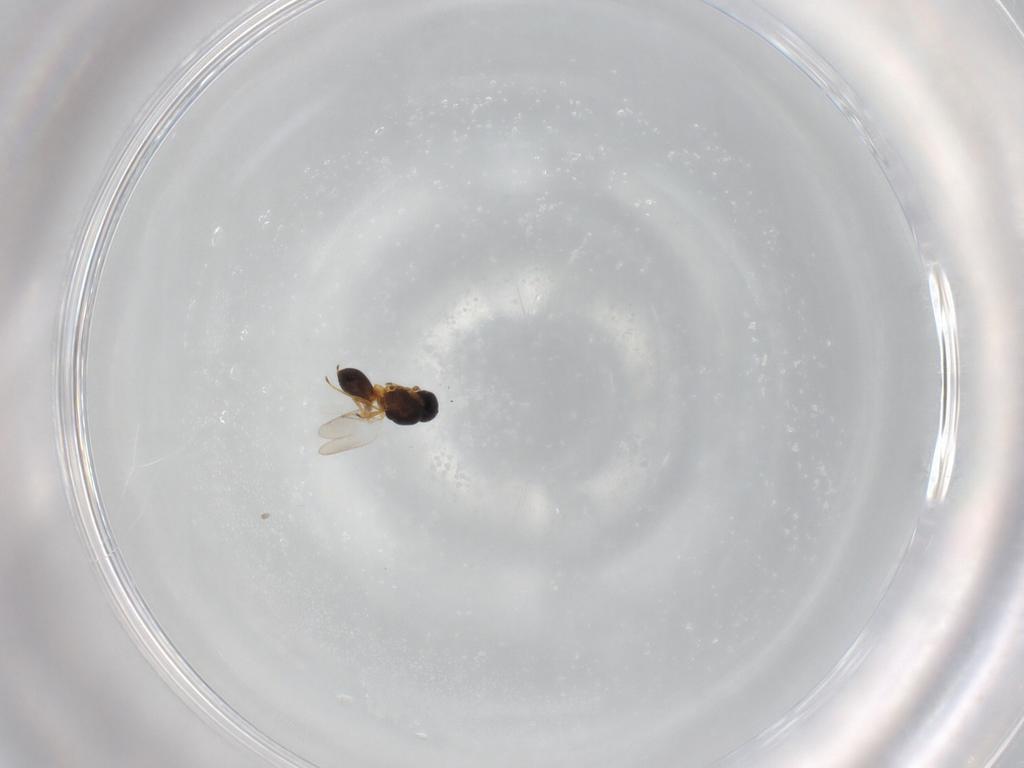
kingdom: Animalia
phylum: Arthropoda
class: Insecta
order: Hymenoptera
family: Platygastridae
